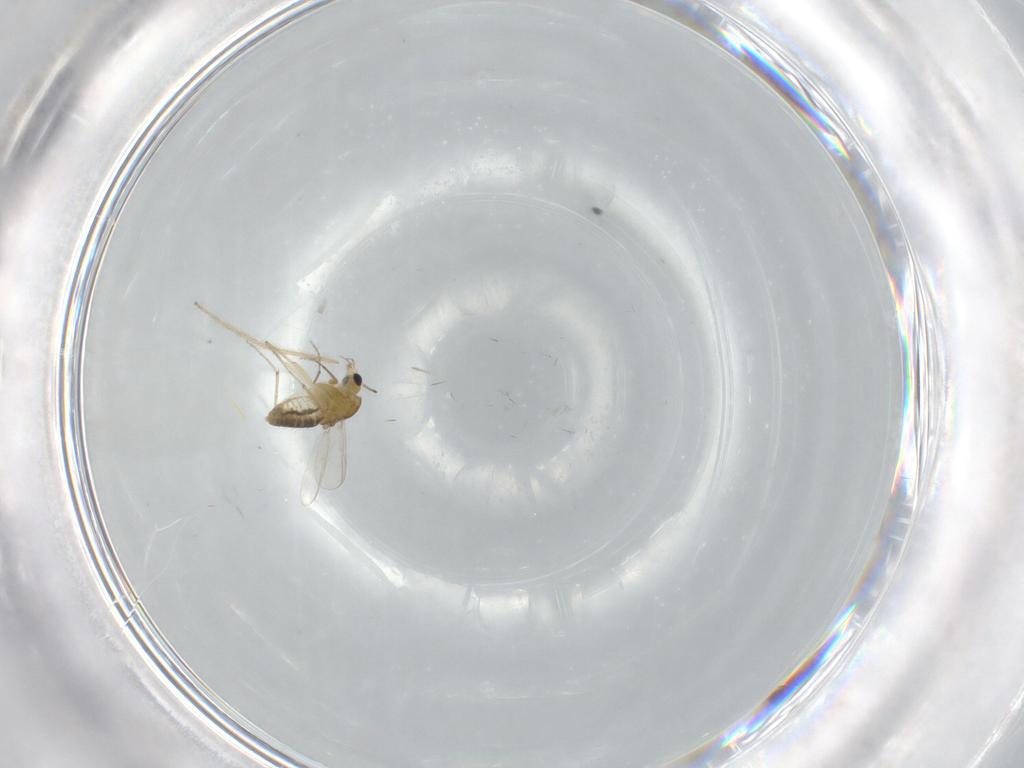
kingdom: Animalia
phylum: Arthropoda
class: Insecta
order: Diptera
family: Chironomidae
